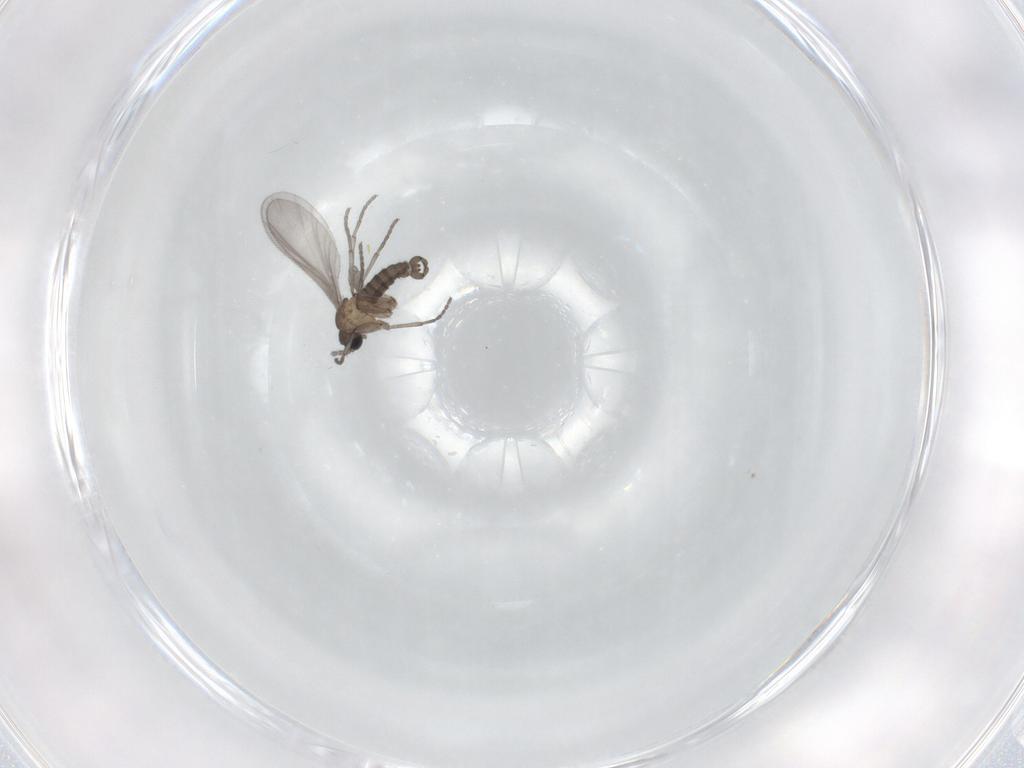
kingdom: Animalia
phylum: Arthropoda
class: Insecta
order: Diptera
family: Sciaridae
